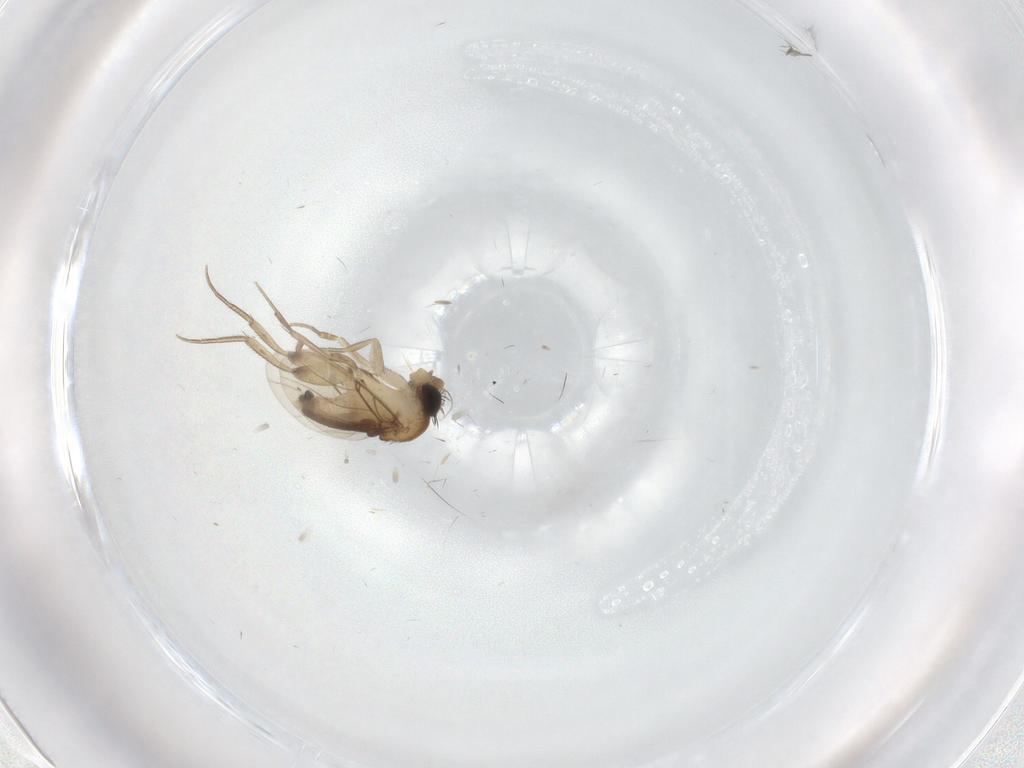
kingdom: Animalia
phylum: Arthropoda
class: Insecta
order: Diptera
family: Phoridae
